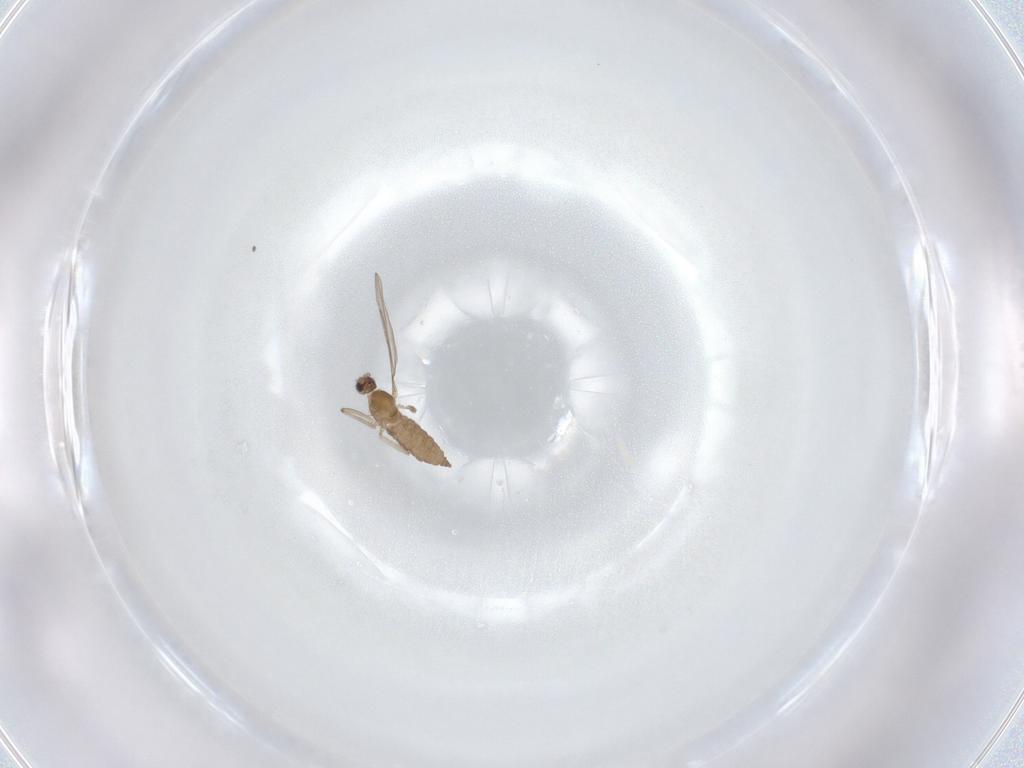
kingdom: Animalia
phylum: Arthropoda
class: Insecta
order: Diptera
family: Cecidomyiidae
